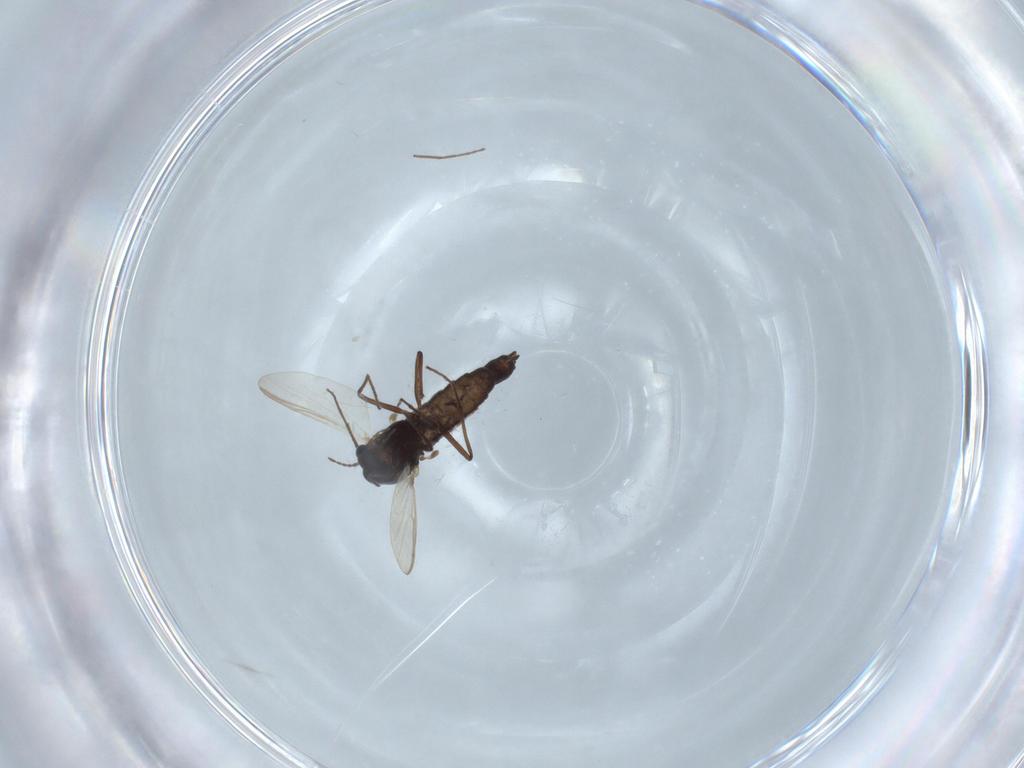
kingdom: Animalia
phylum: Arthropoda
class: Insecta
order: Diptera
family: Chironomidae
